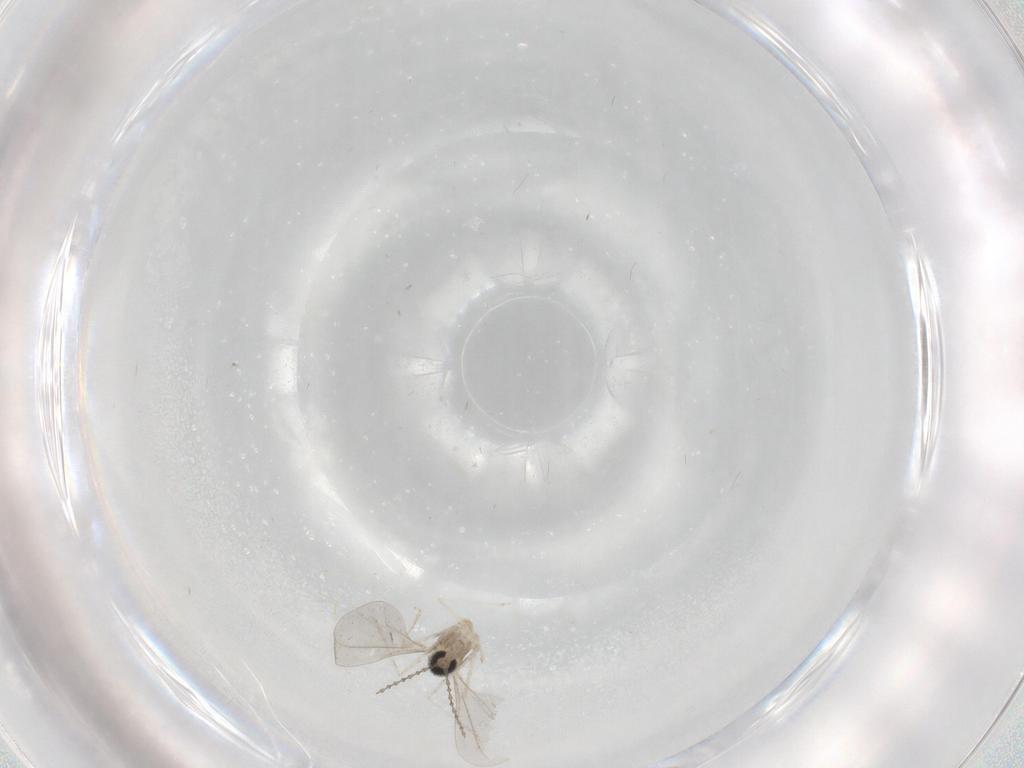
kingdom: Animalia
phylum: Arthropoda
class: Insecta
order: Diptera
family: Cecidomyiidae
